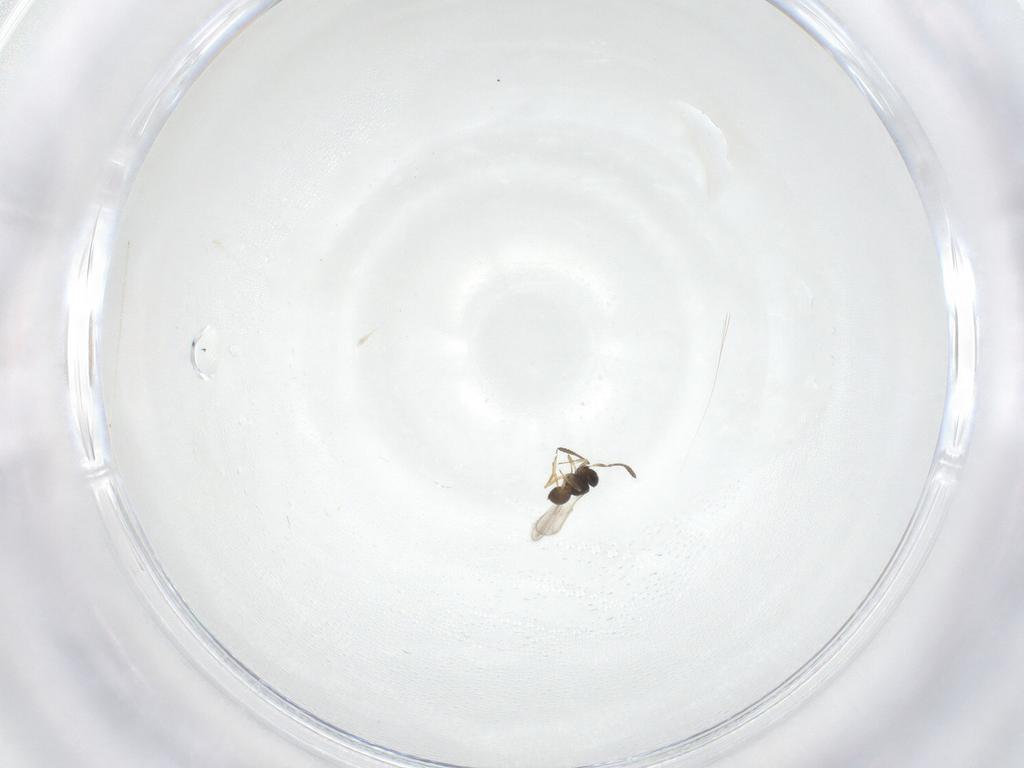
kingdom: Animalia
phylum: Arthropoda
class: Insecta
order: Hymenoptera
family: Scelionidae
